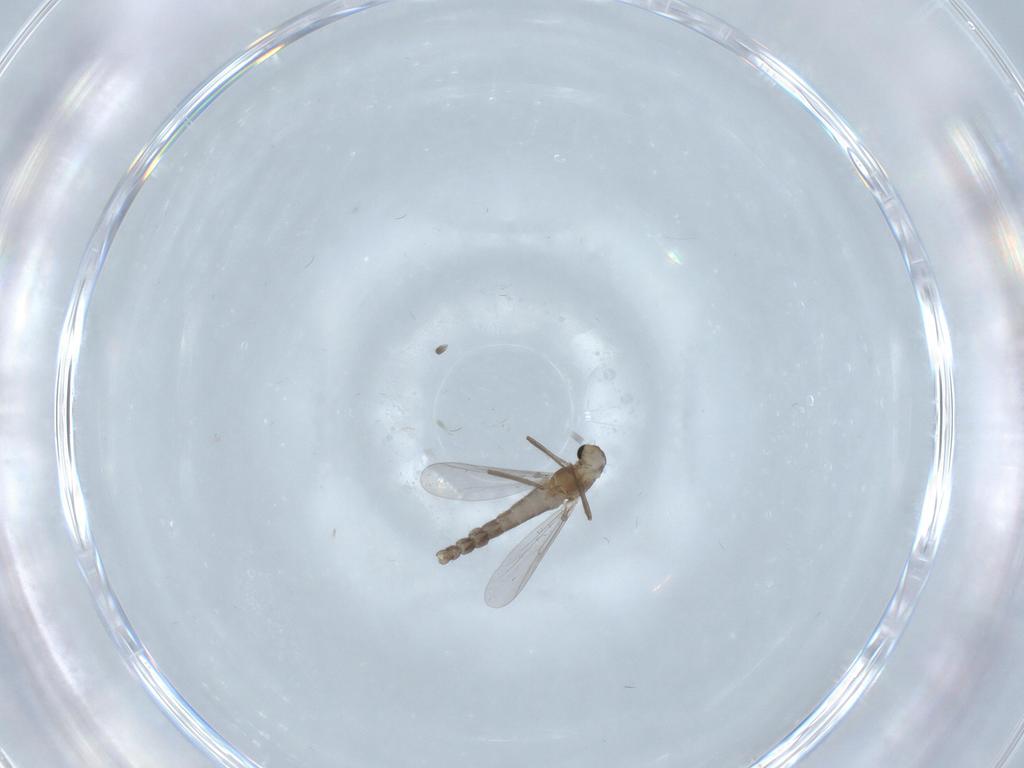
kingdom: Animalia
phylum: Arthropoda
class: Insecta
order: Diptera
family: Chironomidae
